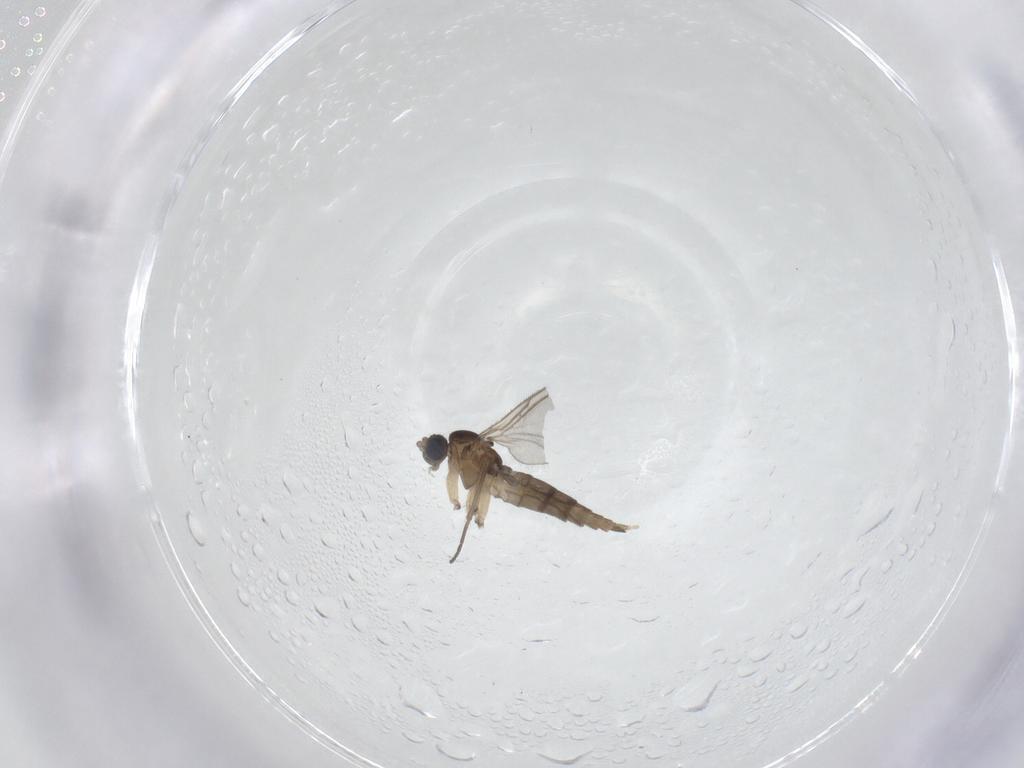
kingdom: Animalia
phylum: Arthropoda
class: Insecta
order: Diptera
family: Sciaridae
